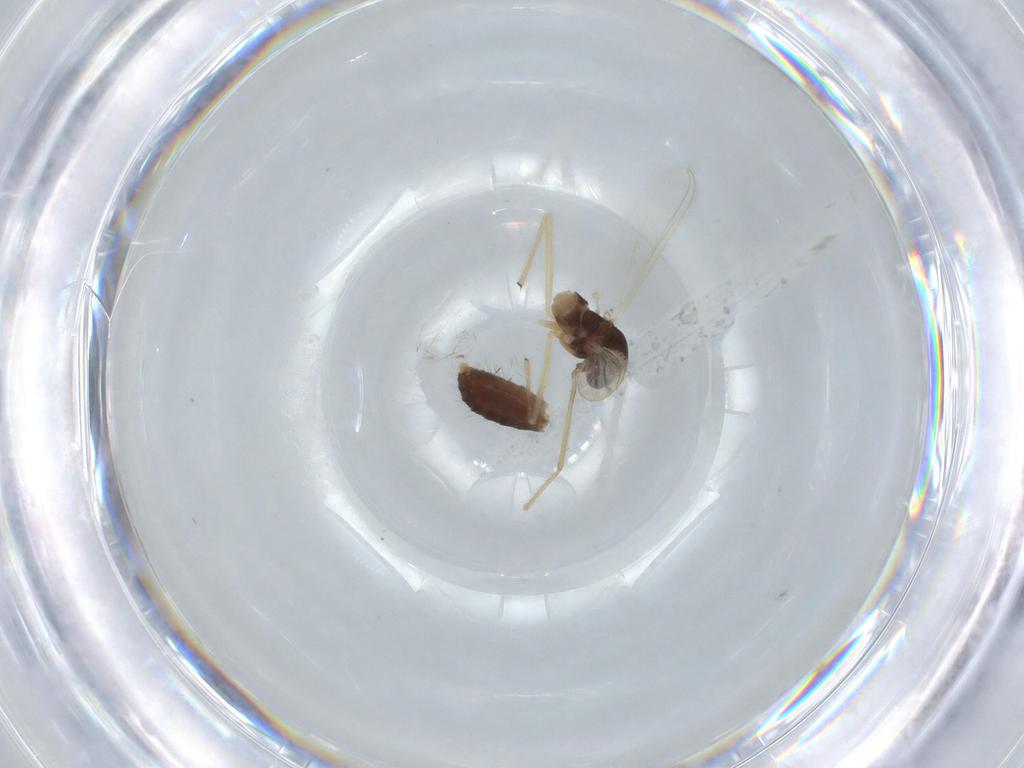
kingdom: Animalia
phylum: Arthropoda
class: Insecta
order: Diptera
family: Chironomidae
